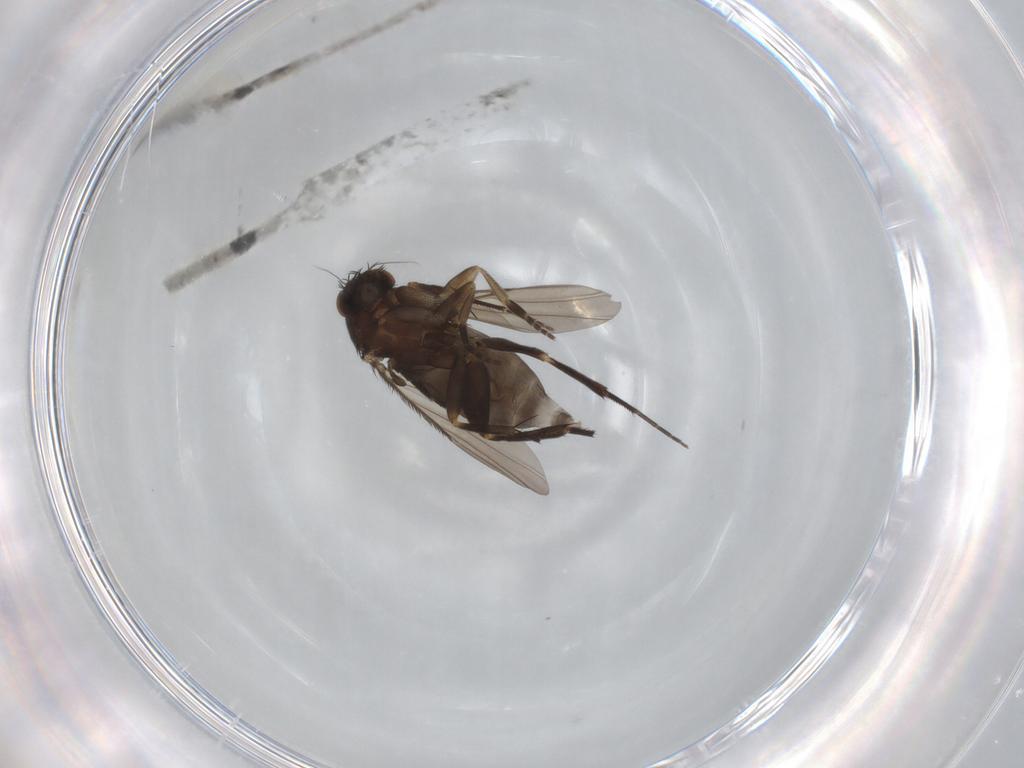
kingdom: Animalia
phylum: Arthropoda
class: Insecta
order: Diptera
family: Phoridae
